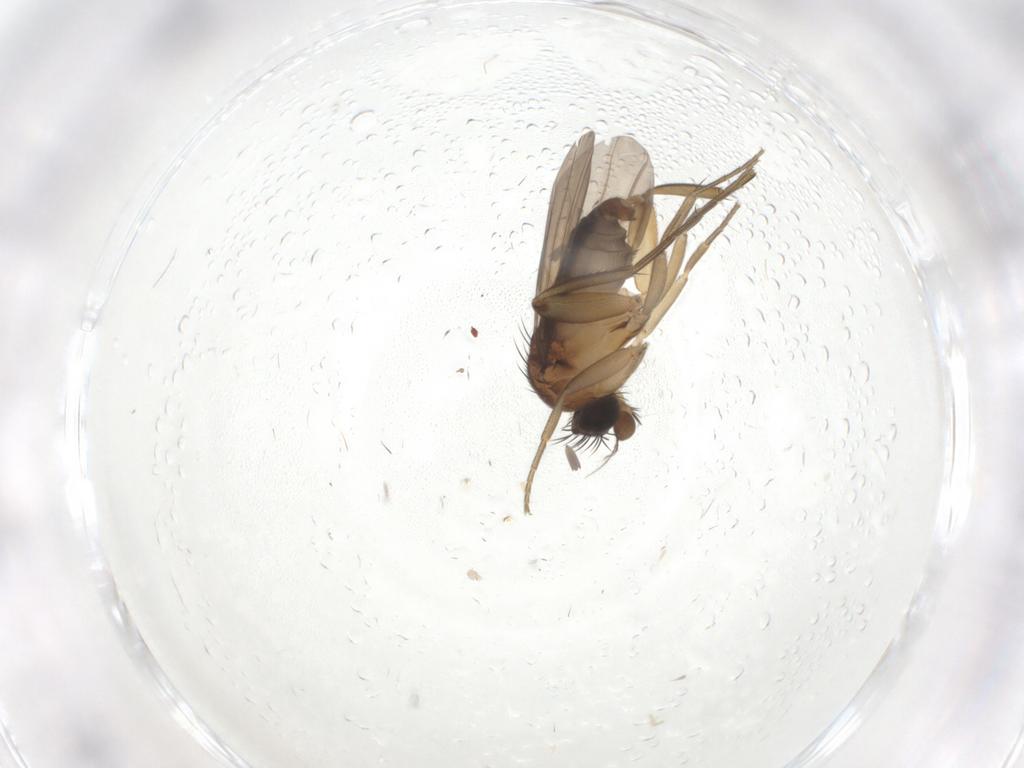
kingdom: Animalia
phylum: Arthropoda
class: Insecta
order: Diptera
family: Phoridae
